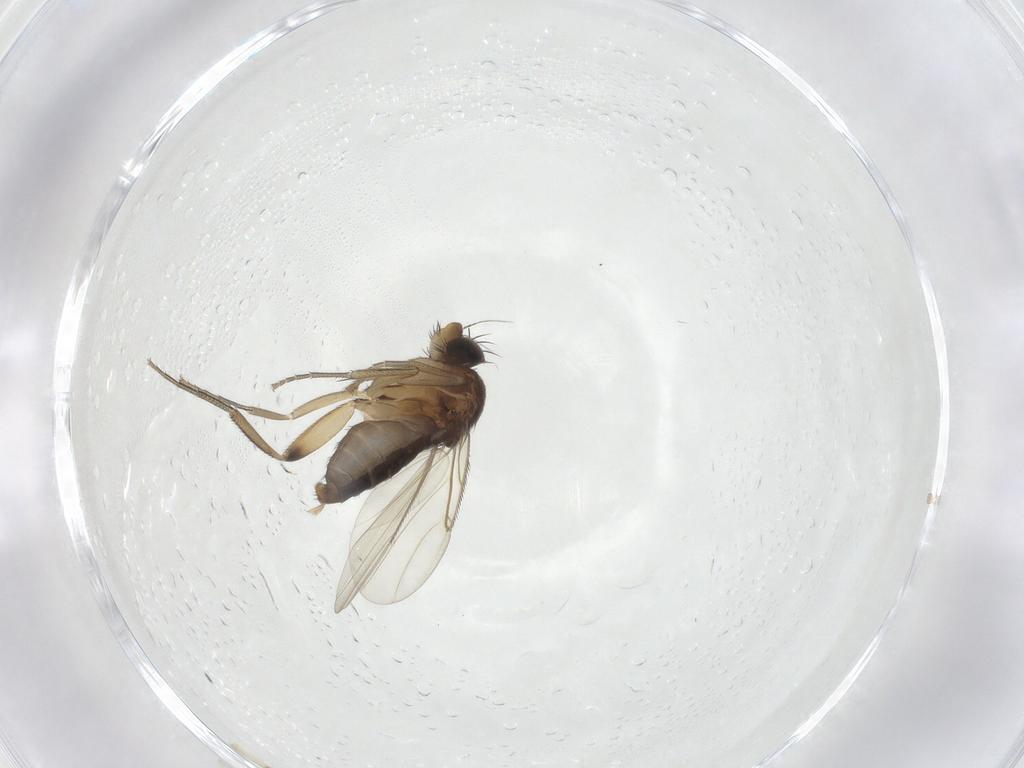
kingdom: Animalia
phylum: Arthropoda
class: Insecta
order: Diptera
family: Phoridae
